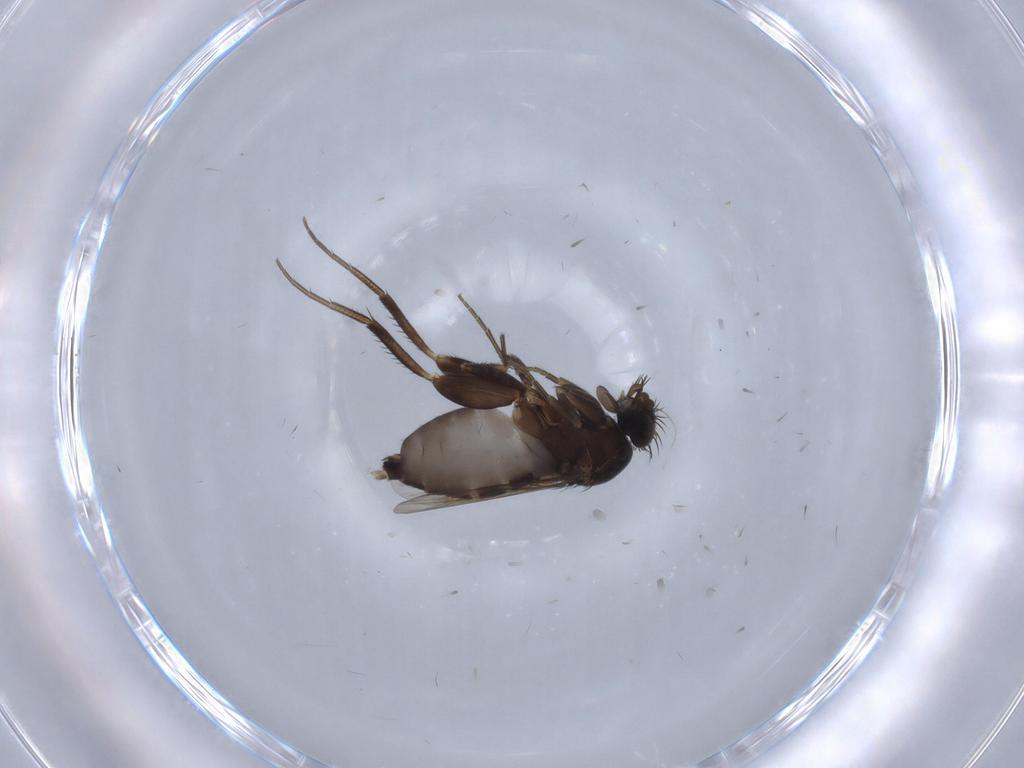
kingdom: Animalia
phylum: Arthropoda
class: Insecta
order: Diptera
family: Phoridae
